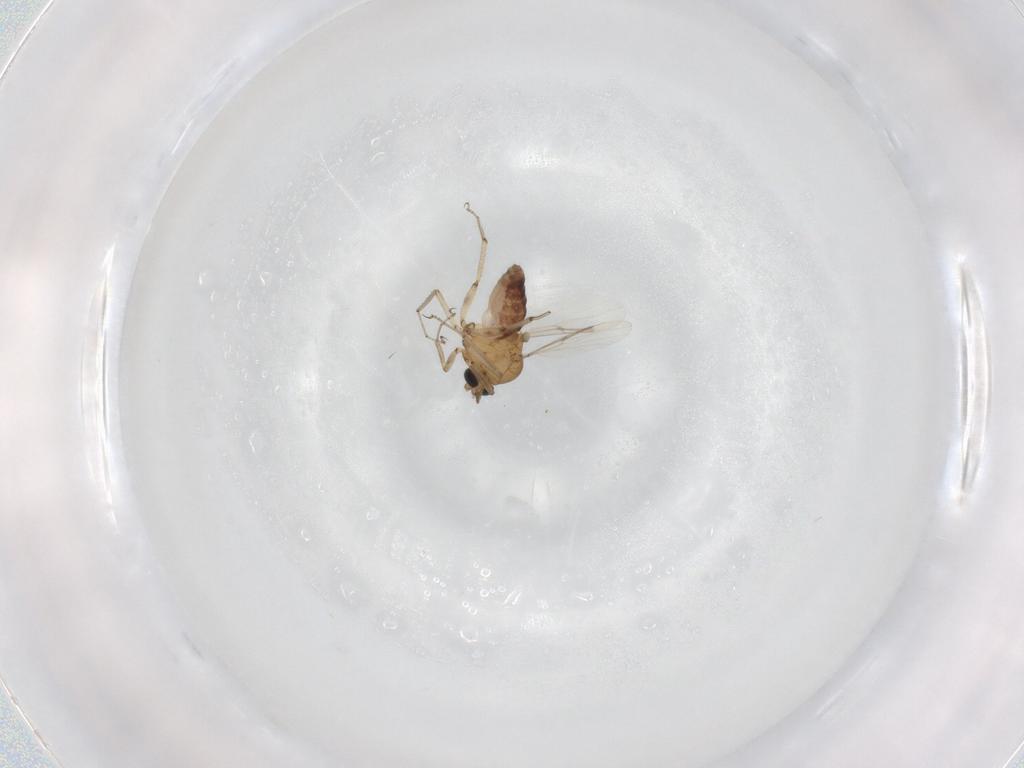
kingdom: Animalia
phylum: Arthropoda
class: Insecta
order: Diptera
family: Ceratopogonidae
